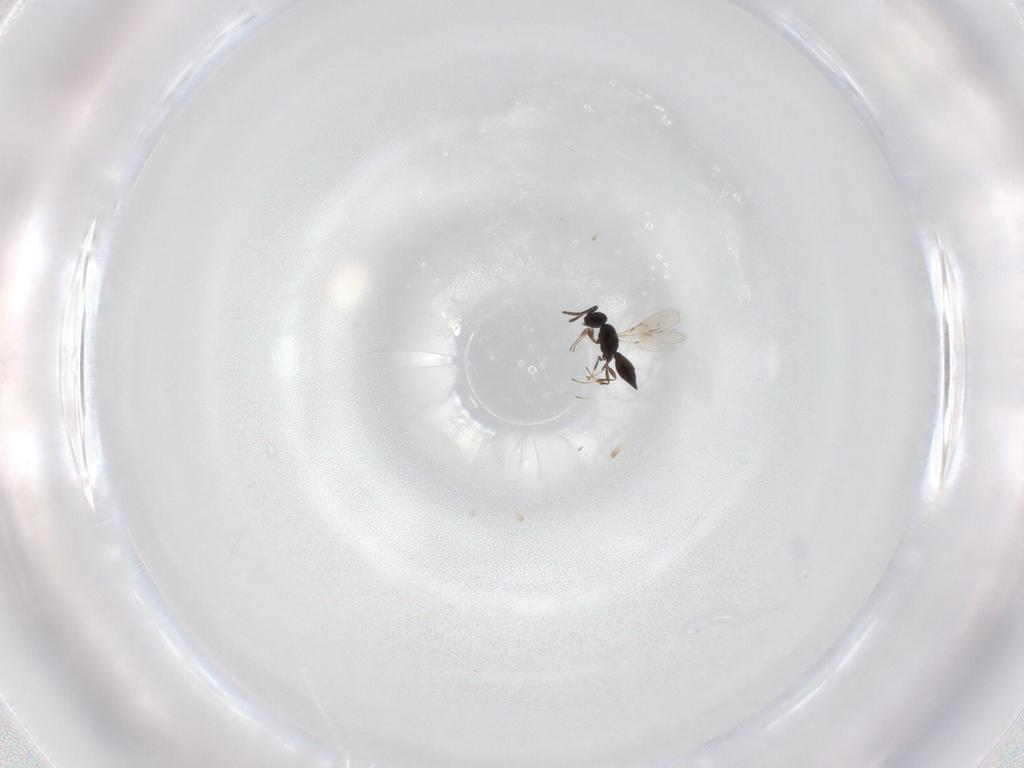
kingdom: Animalia
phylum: Arthropoda
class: Insecta
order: Hymenoptera
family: Scelionidae
